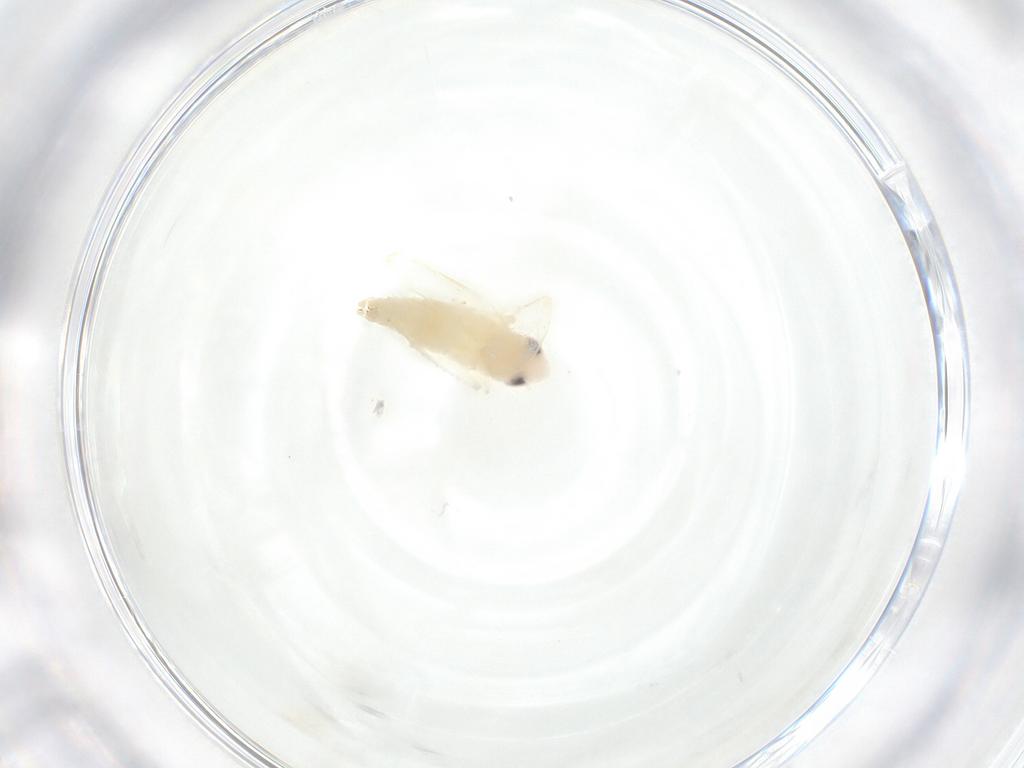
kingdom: Animalia
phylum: Arthropoda
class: Insecta
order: Hemiptera
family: Cicadellidae
